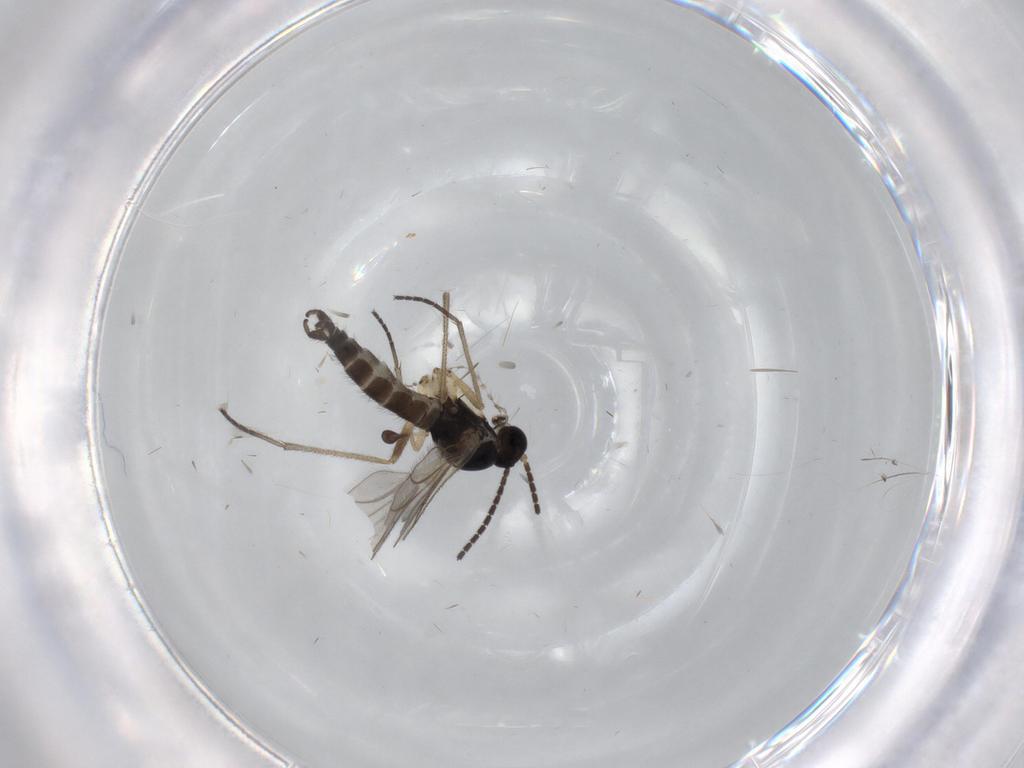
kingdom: Animalia
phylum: Arthropoda
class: Insecta
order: Diptera
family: Sciaridae
